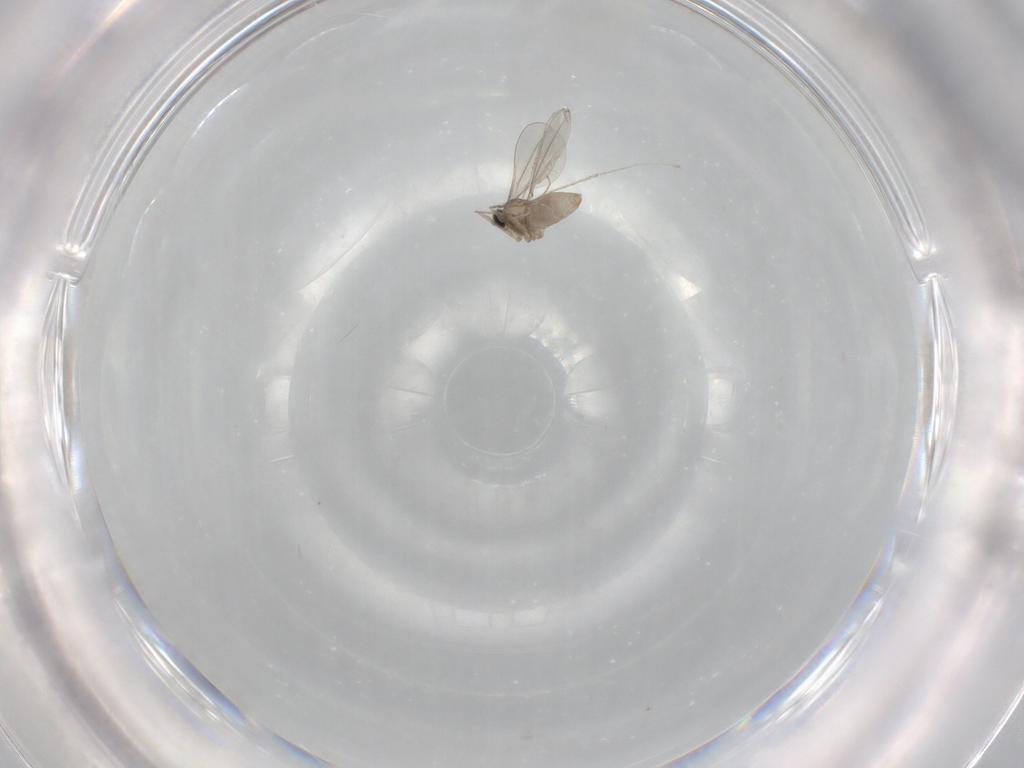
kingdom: Animalia
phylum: Arthropoda
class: Insecta
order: Diptera
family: Cecidomyiidae
